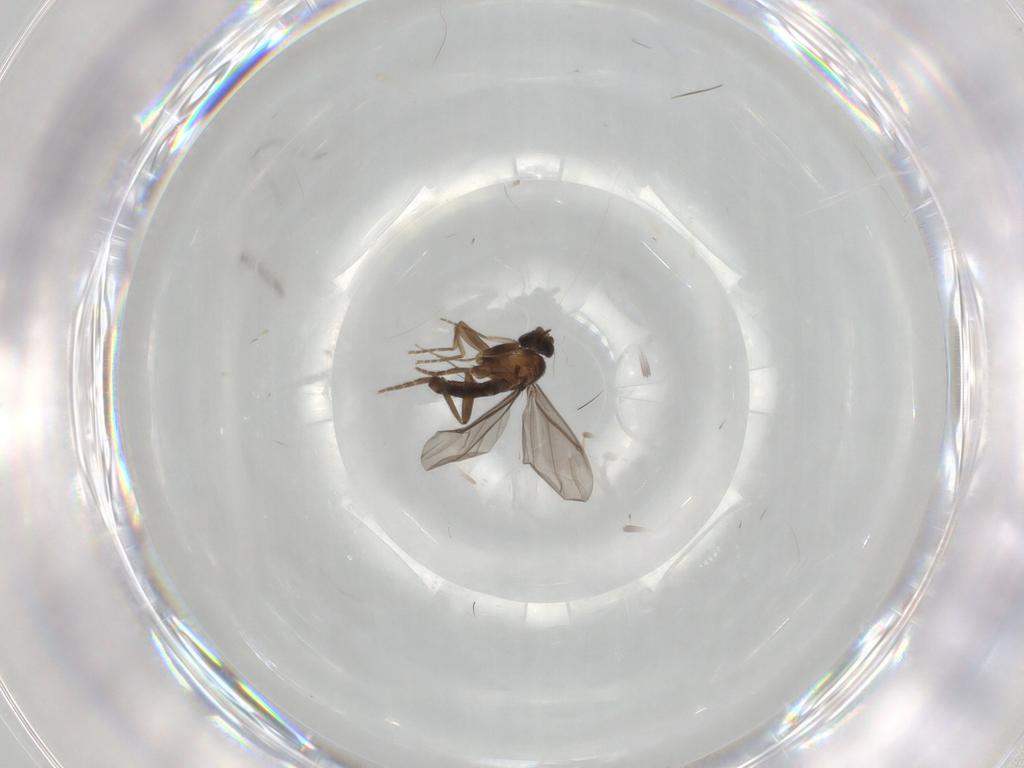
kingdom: Animalia
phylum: Arthropoda
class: Insecta
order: Diptera
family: Phoridae
